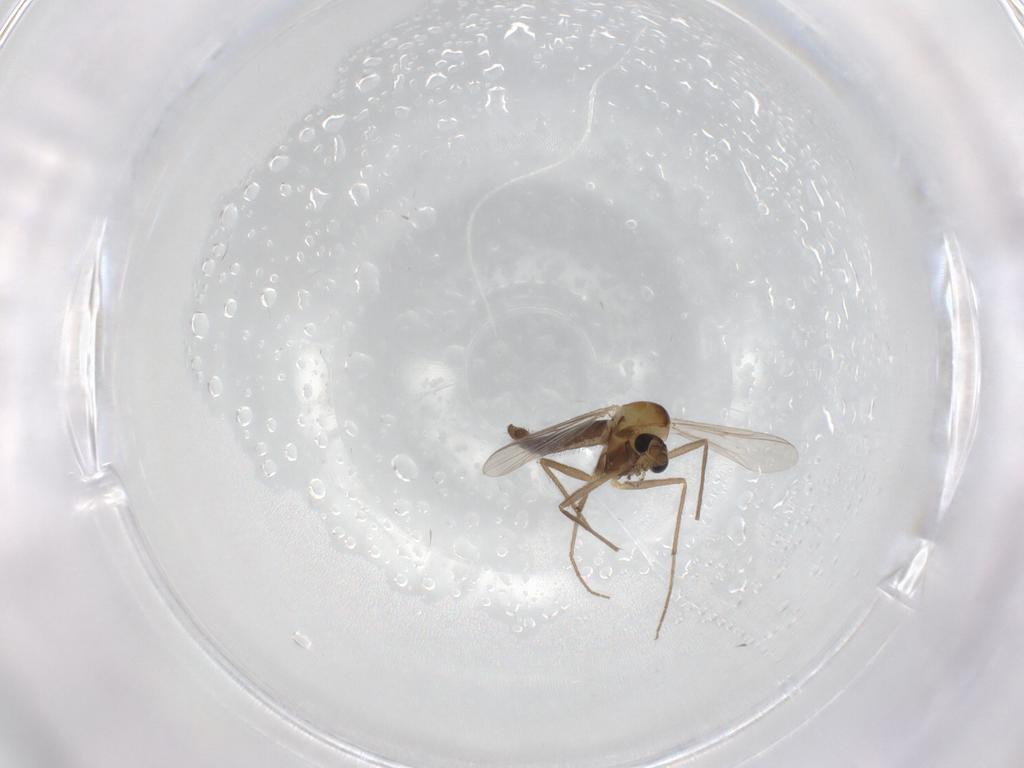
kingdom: Animalia
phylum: Arthropoda
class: Insecta
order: Diptera
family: Chironomidae
